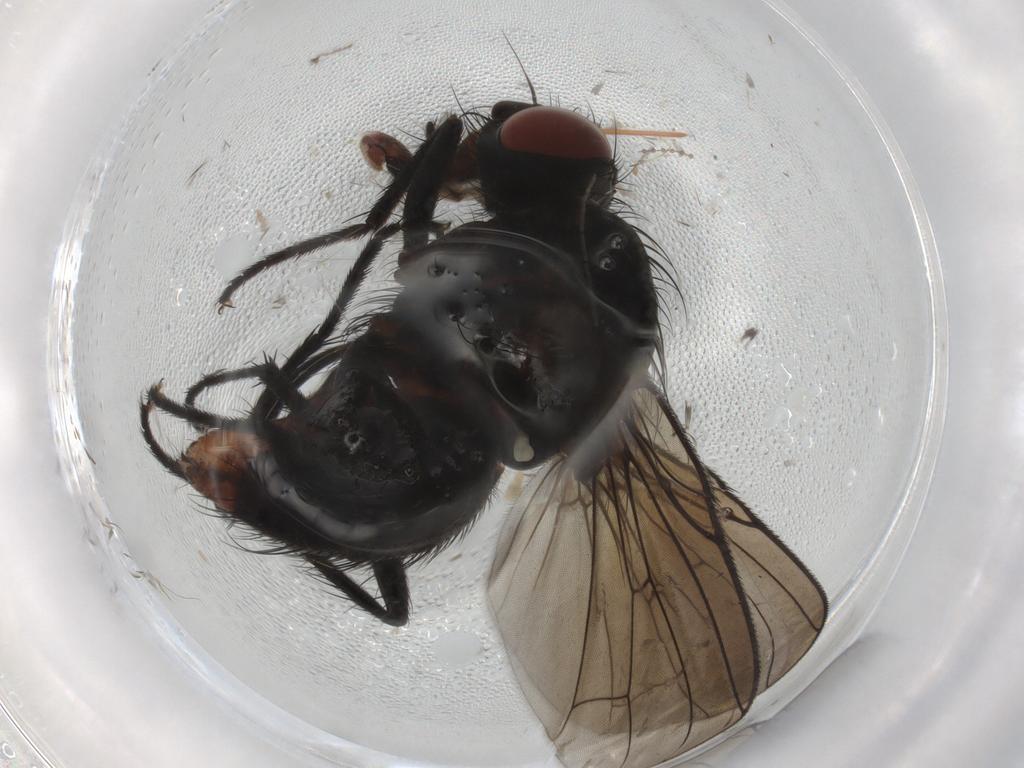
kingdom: Animalia
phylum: Arthropoda
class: Insecta
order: Diptera
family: Anthomyiidae
